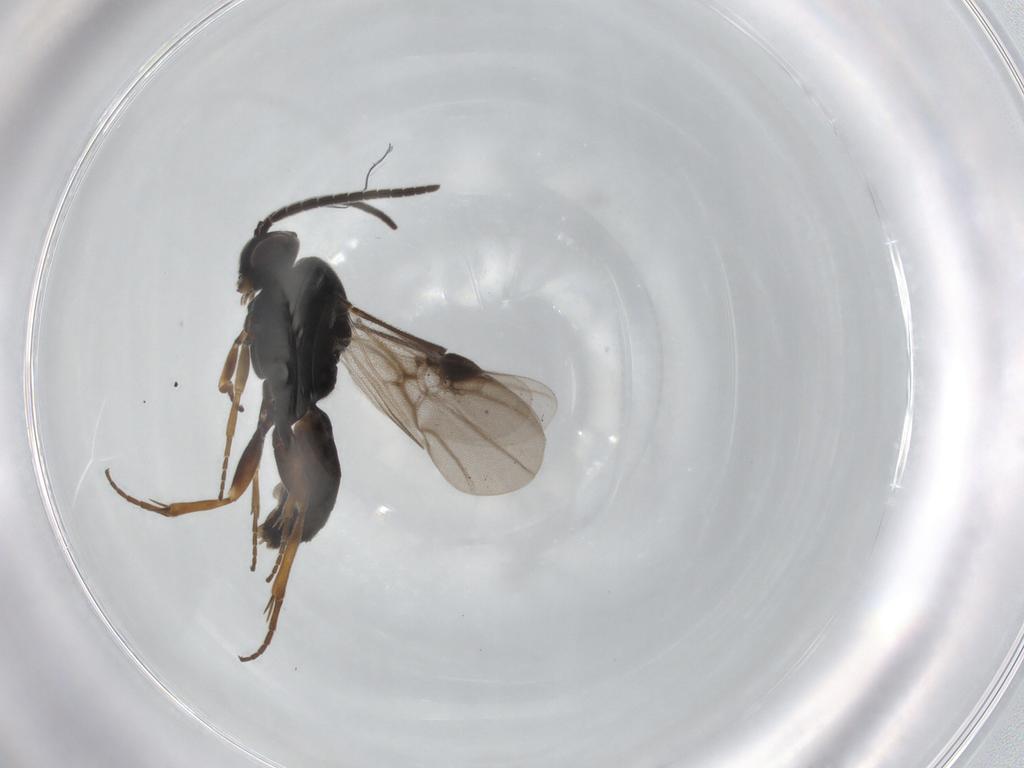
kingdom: Animalia
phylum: Arthropoda
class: Insecta
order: Hymenoptera
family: Braconidae
